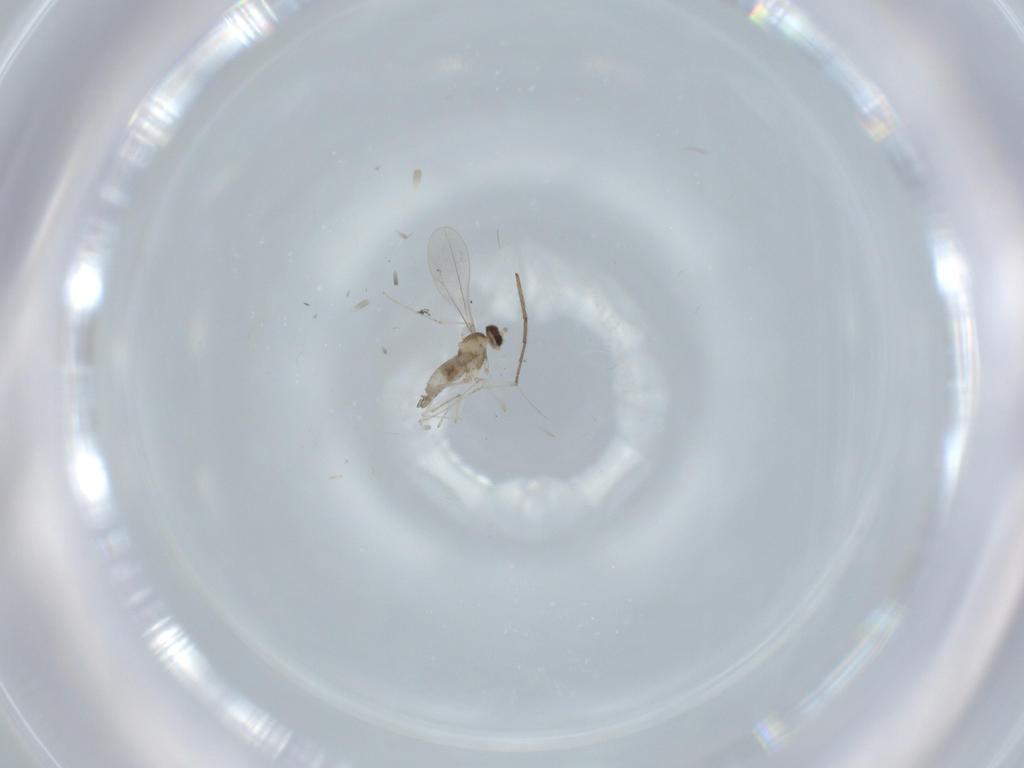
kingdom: Animalia
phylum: Arthropoda
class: Insecta
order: Diptera
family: Cecidomyiidae
